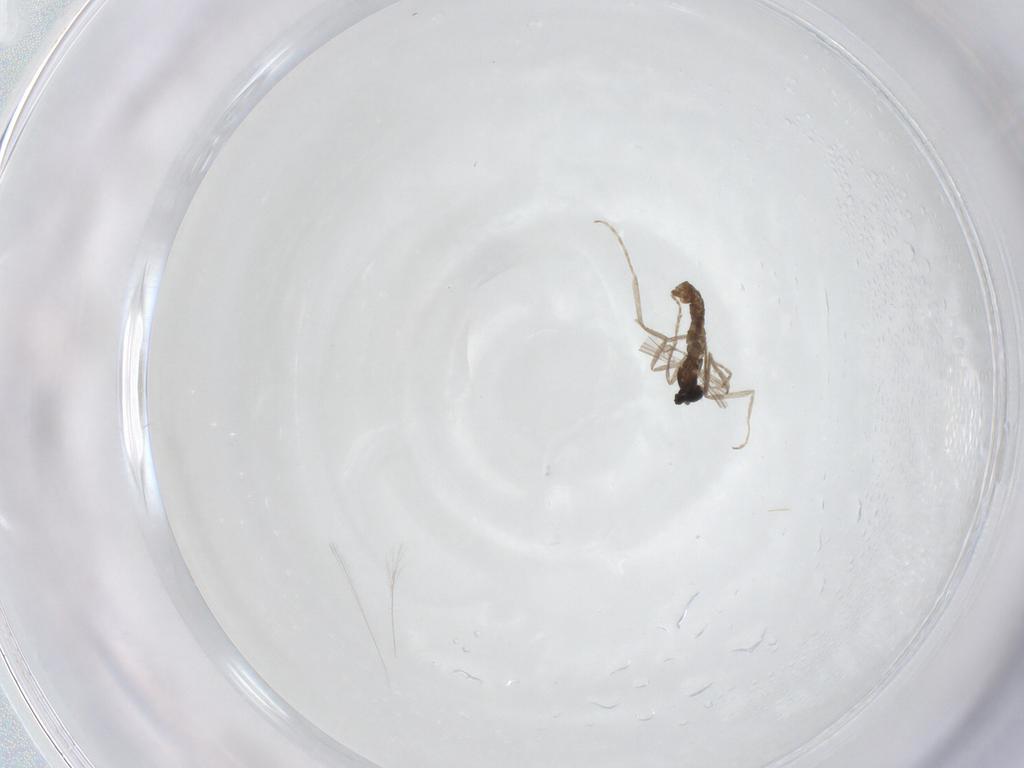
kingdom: Animalia
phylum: Arthropoda
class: Insecta
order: Diptera
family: Cecidomyiidae
